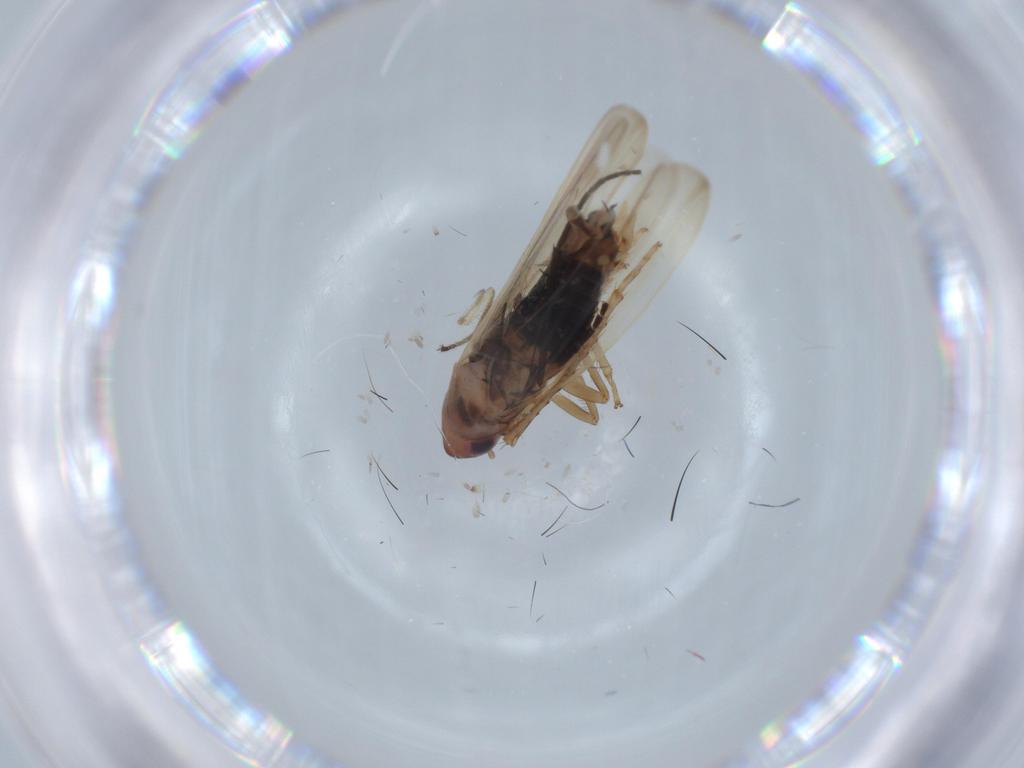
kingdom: Animalia
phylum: Arthropoda
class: Insecta
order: Hemiptera
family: Cicadellidae
